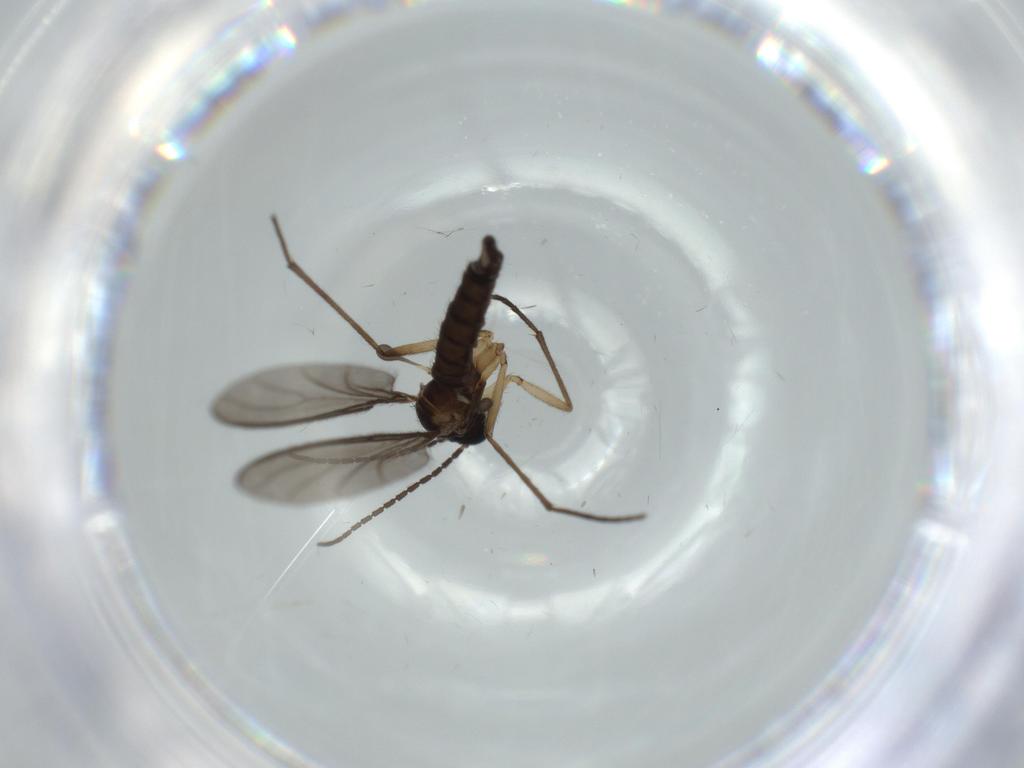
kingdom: Animalia
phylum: Arthropoda
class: Insecta
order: Diptera
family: Sciaridae
